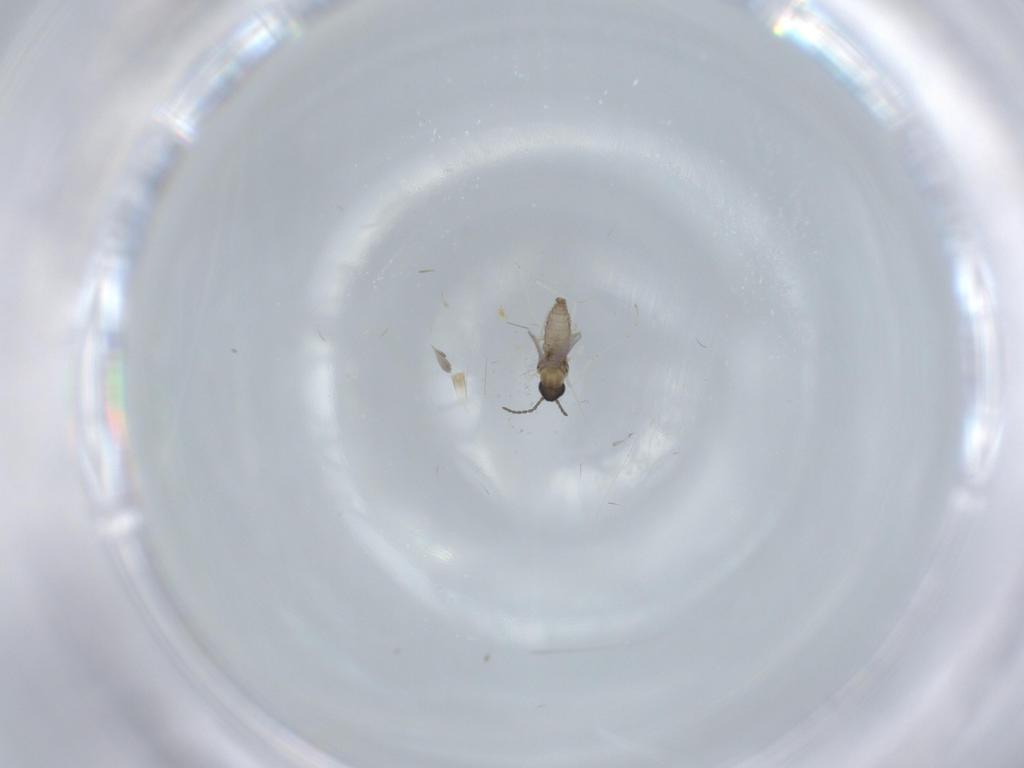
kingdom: Animalia
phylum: Arthropoda
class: Insecta
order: Diptera
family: Cecidomyiidae
